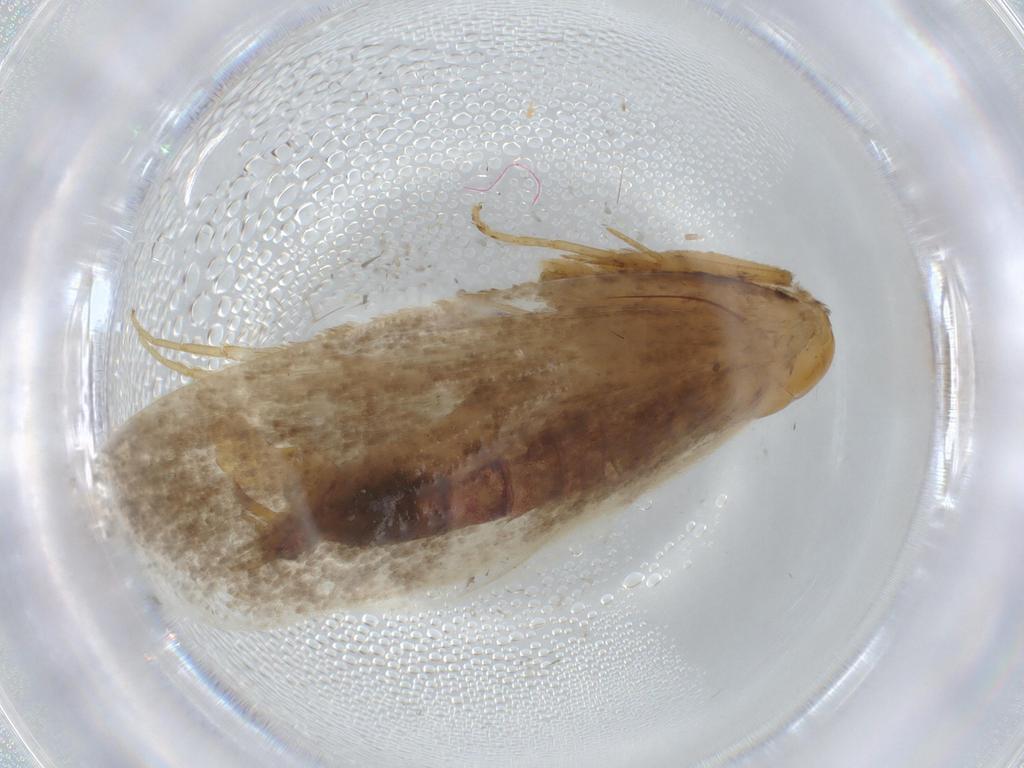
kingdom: Animalia
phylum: Arthropoda
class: Insecta
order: Lepidoptera
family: Tineidae
